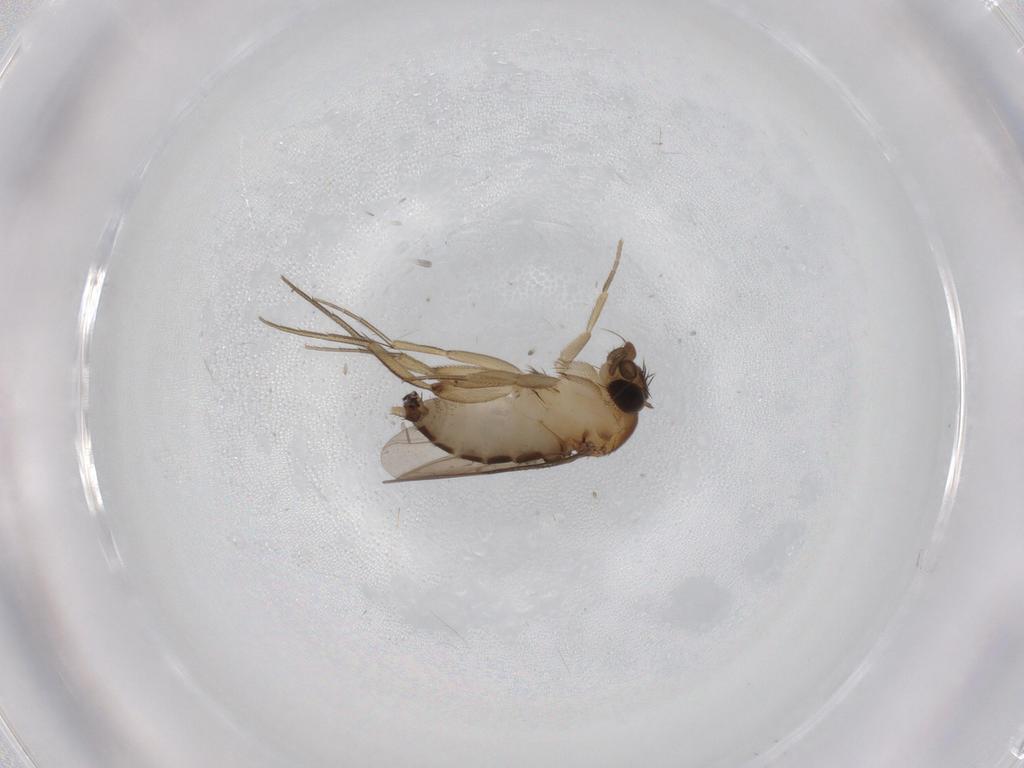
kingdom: Animalia
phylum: Arthropoda
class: Insecta
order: Diptera
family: Phoridae
